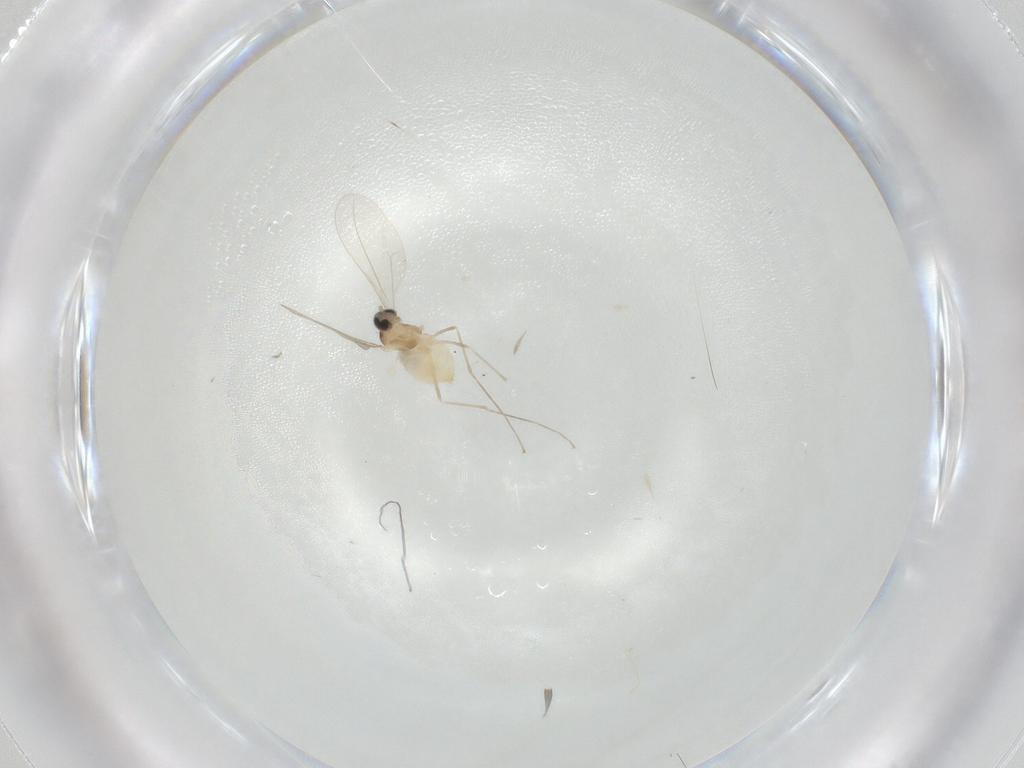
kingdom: Animalia
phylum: Arthropoda
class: Insecta
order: Diptera
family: Cecidomyiidae
